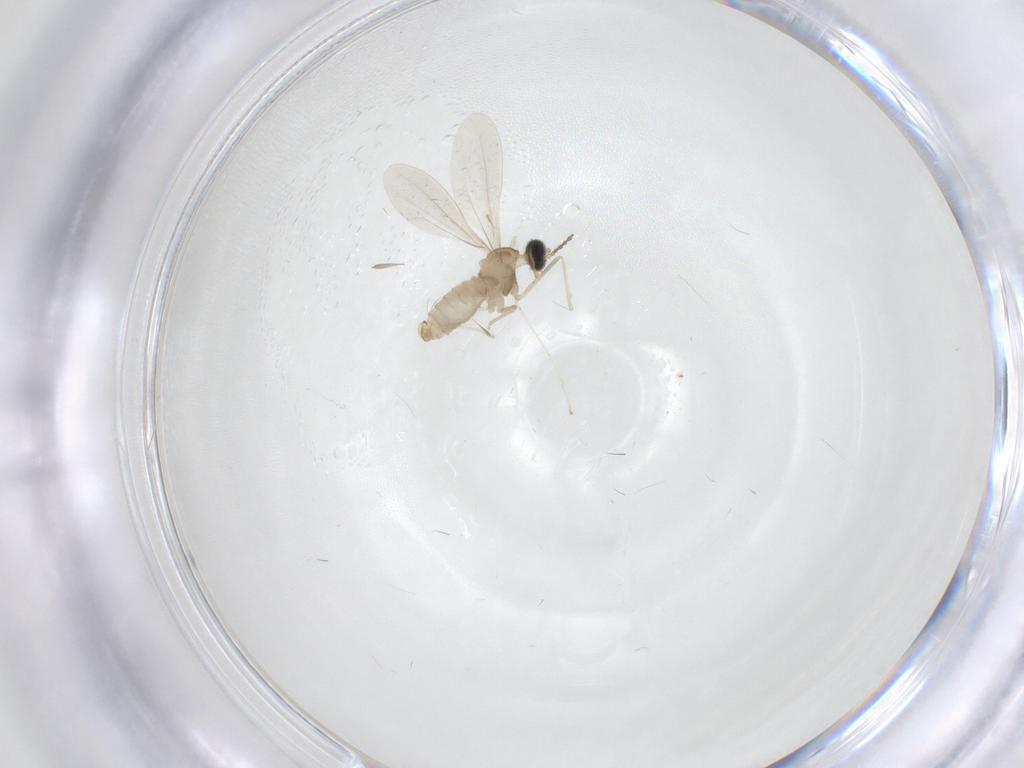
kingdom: Animalia
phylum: Arthropoda
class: Insecta
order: Diptera
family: Cecidomyiidae
